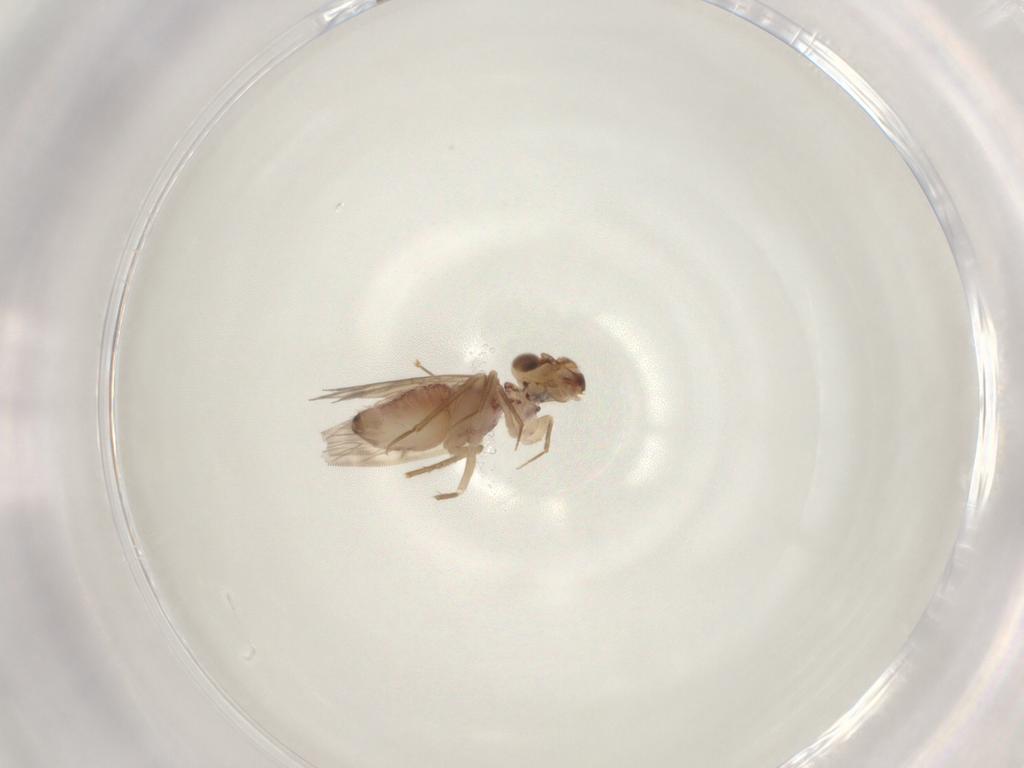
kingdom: Animalia
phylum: Arthropoda
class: Insecta
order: Psocodea
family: Lepidopsocidae
